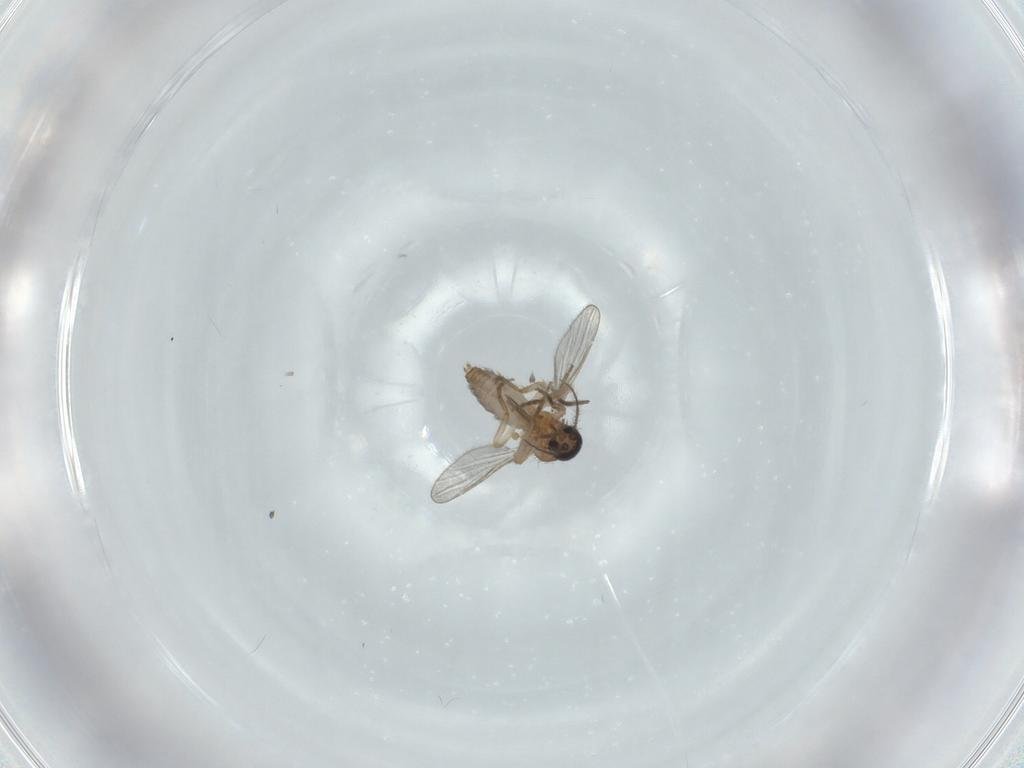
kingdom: Animalia
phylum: Arthropoda
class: Insecta
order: Diptera
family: Ceratopogonidae
